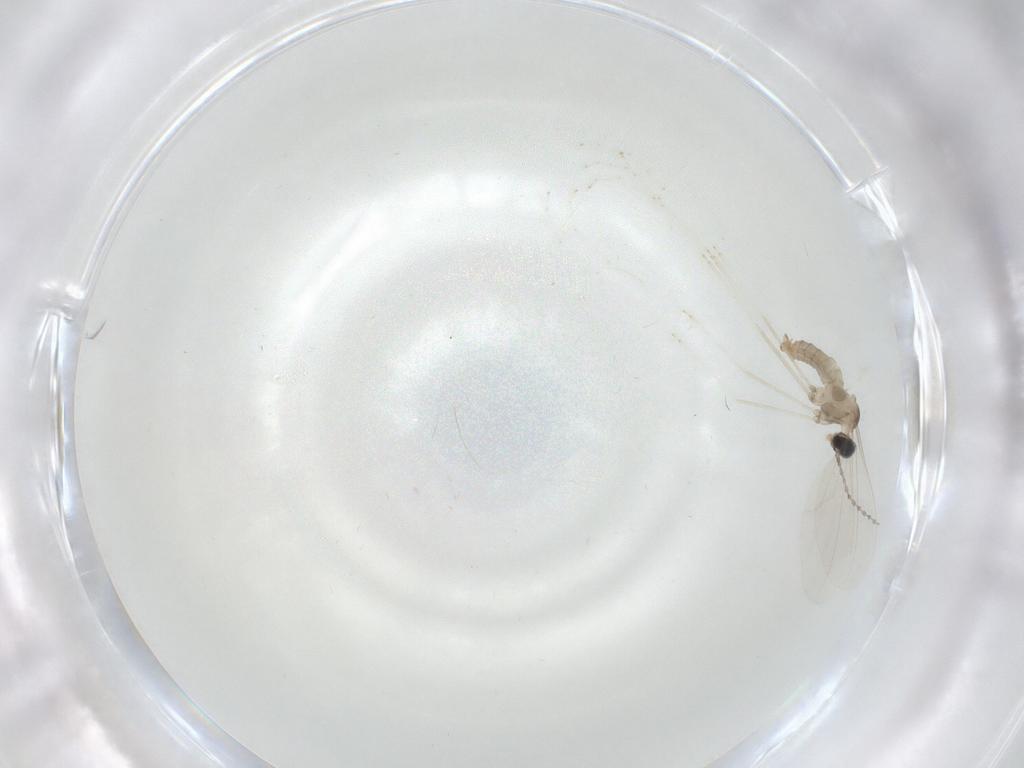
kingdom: Animalia
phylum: Arthropoda
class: Insecta
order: Diptera
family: Cecidomyiidae
